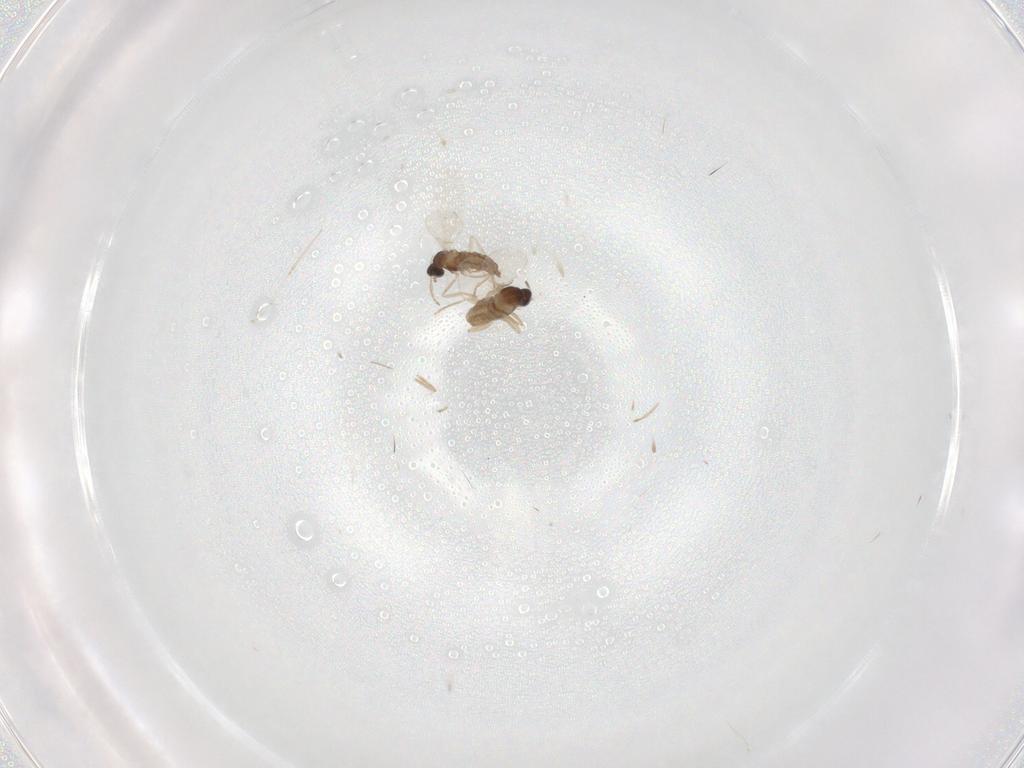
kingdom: Animalia
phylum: Arthropoda
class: Insecta
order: Diptera
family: Cecidomyiidae
